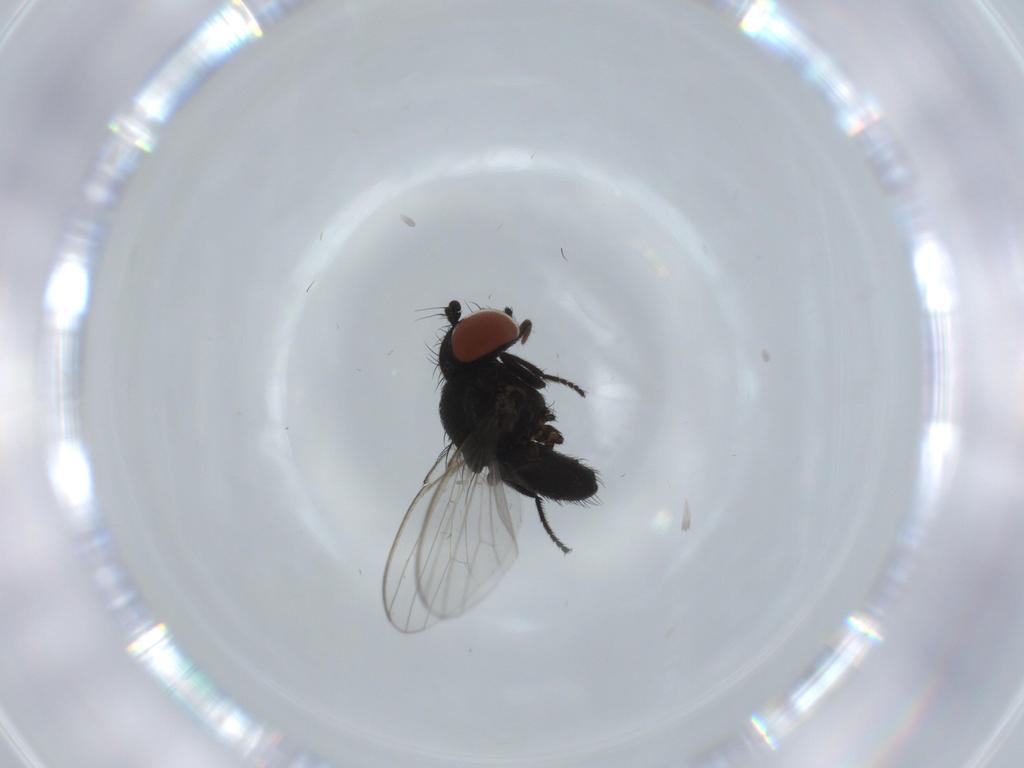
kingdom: Animalia
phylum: Arthropoda
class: Insecta
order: Diptera
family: Milichiidae
